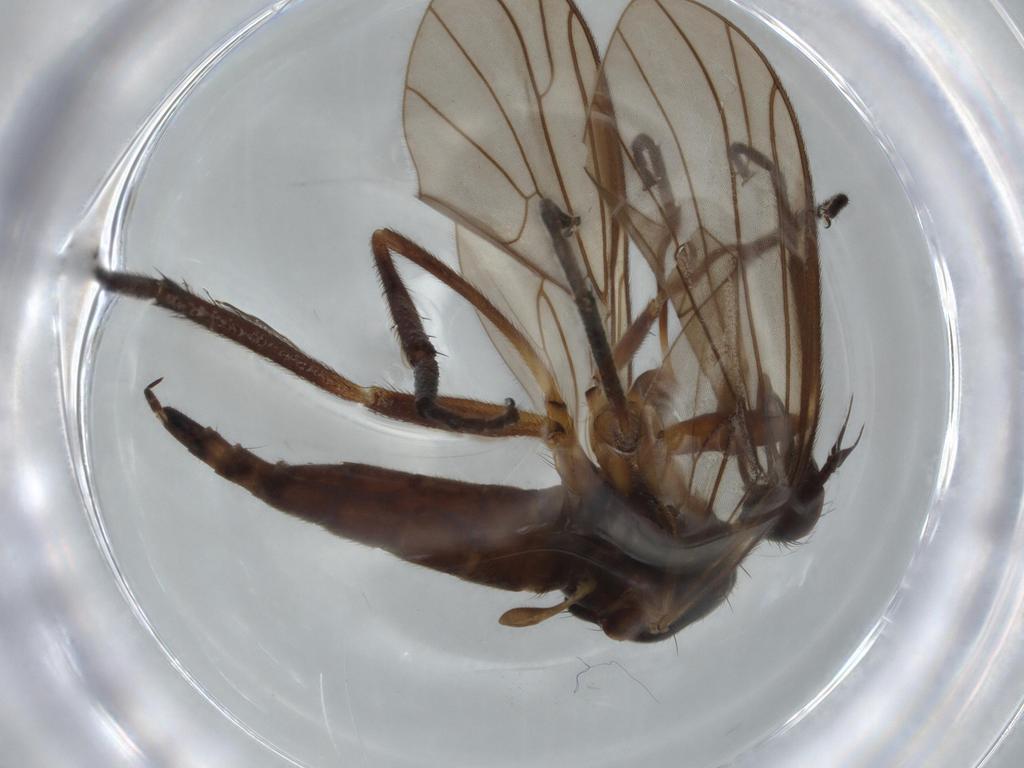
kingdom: Animalia
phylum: Arthropoda
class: Insecta
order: Diptera
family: Empididae
